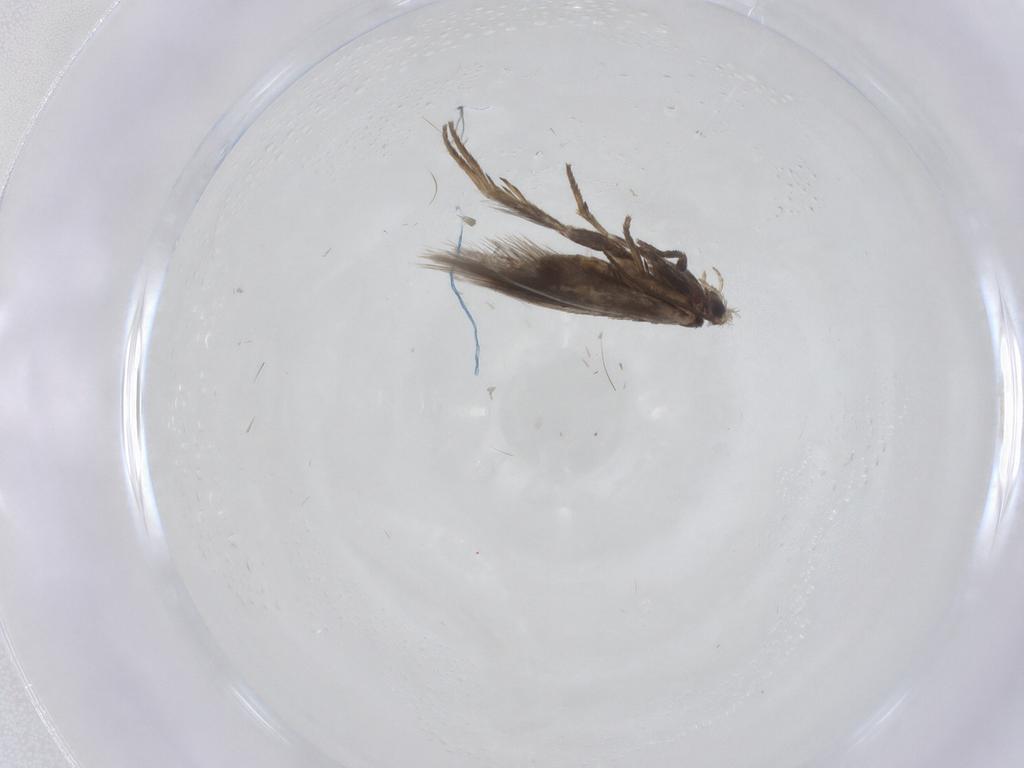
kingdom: Animalia
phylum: Arthropoda
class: Insecta
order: Lepidoptera
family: Nepticulidae
